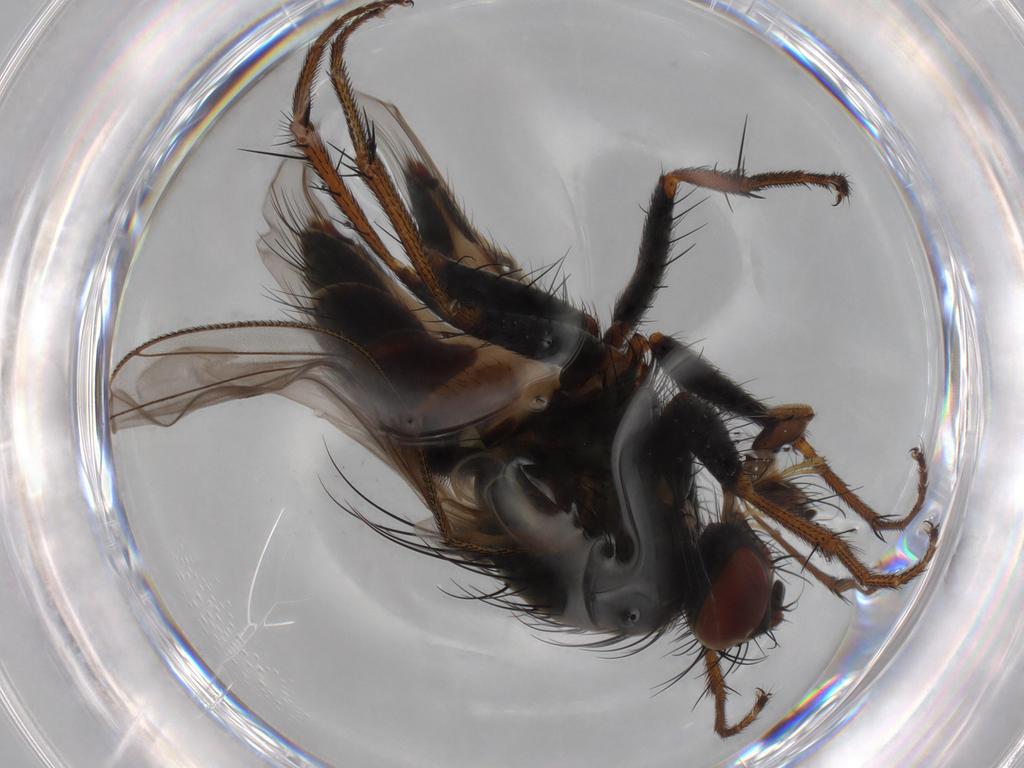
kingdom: Animalia
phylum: Arthropoda
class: Insecta
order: Diptera
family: Muscidae
